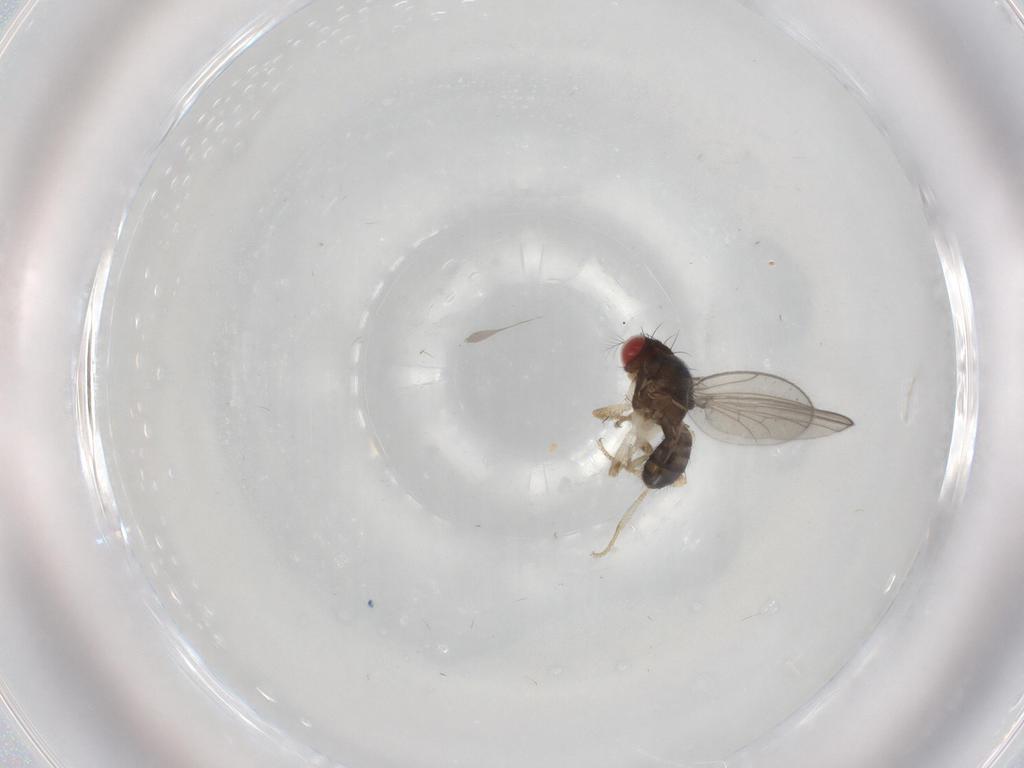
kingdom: Animalia
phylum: Arthropoda
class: Insecta
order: Diptera
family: Drosophilidae
